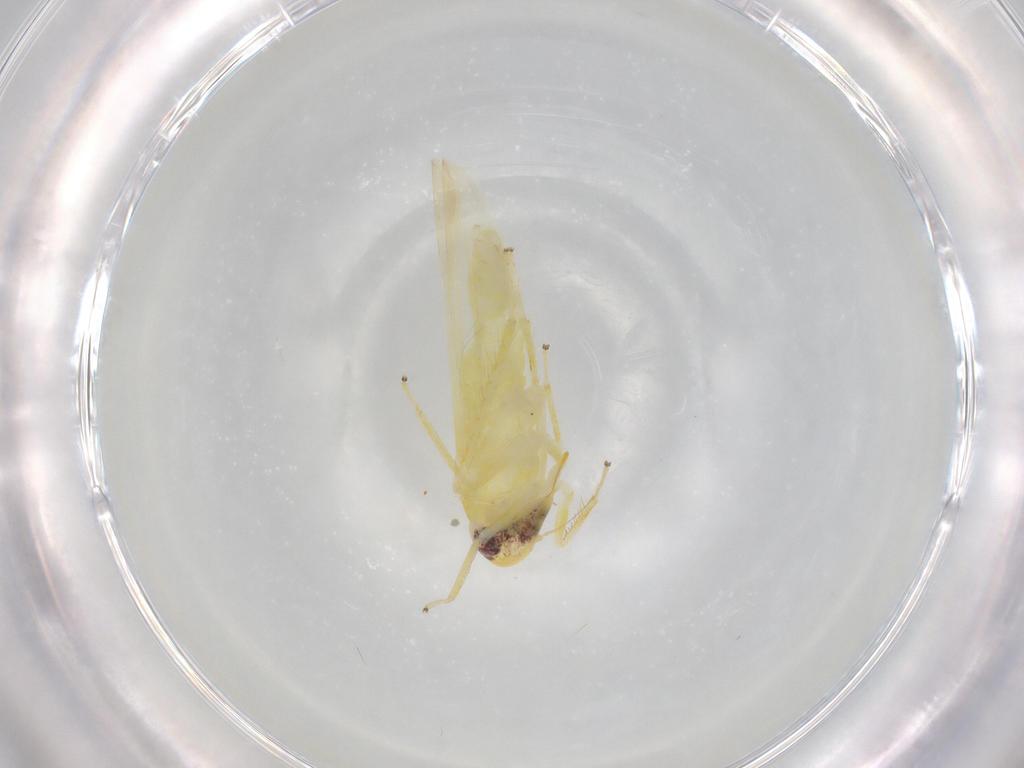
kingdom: Animalia
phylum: Arthropoda
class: Insecta
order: Hemiptera
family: Cicadellidae
